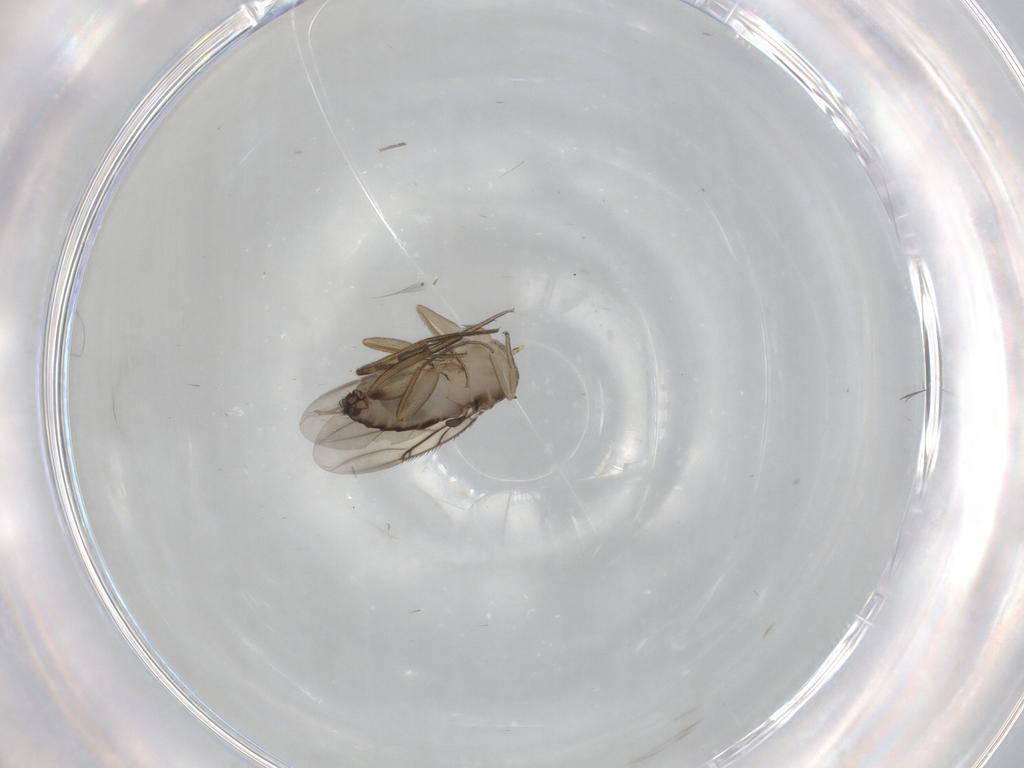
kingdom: Animalia
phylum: Arthropoda
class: Insecta
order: Diptera
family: Phoridae
